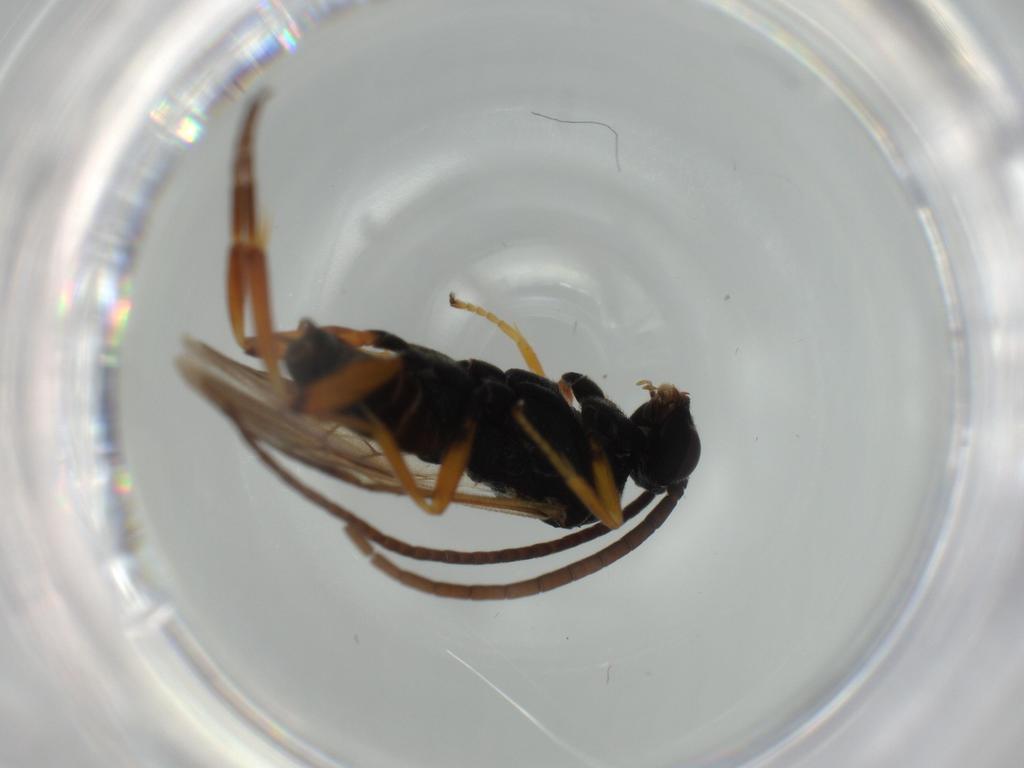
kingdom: Animalia
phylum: Arthropoda
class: Insecta
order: Hymenoptera
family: Braconidae
